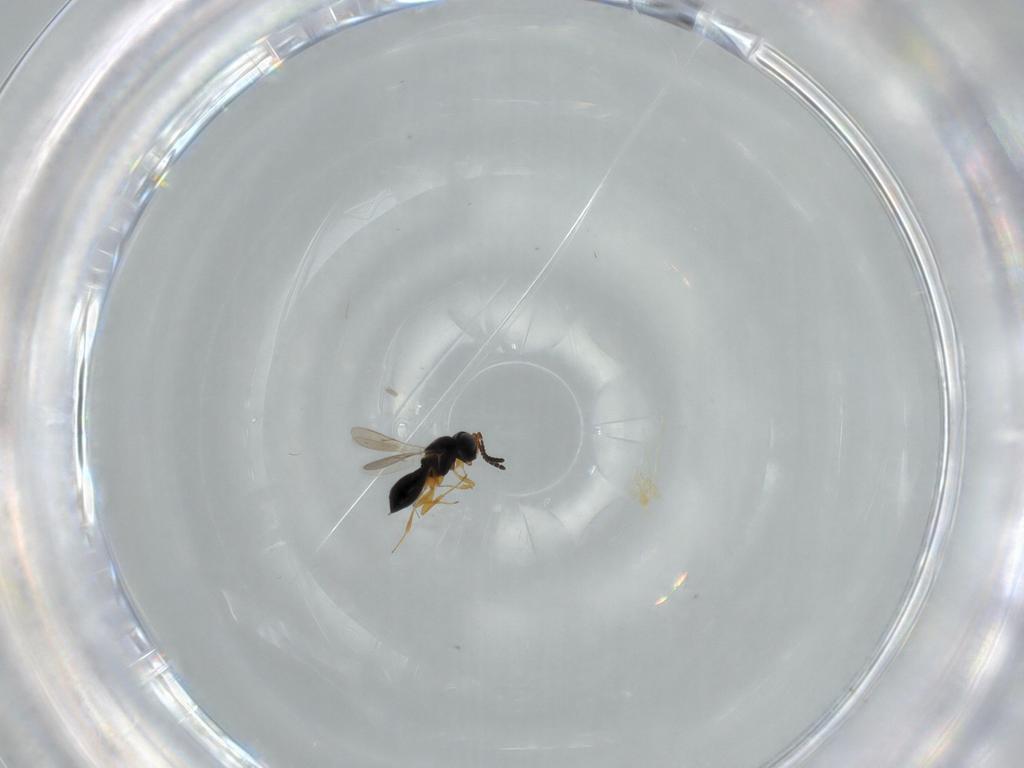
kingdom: Animalia
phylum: Arthropoda
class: Insecta
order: Hymenoptera
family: Scelionidae
